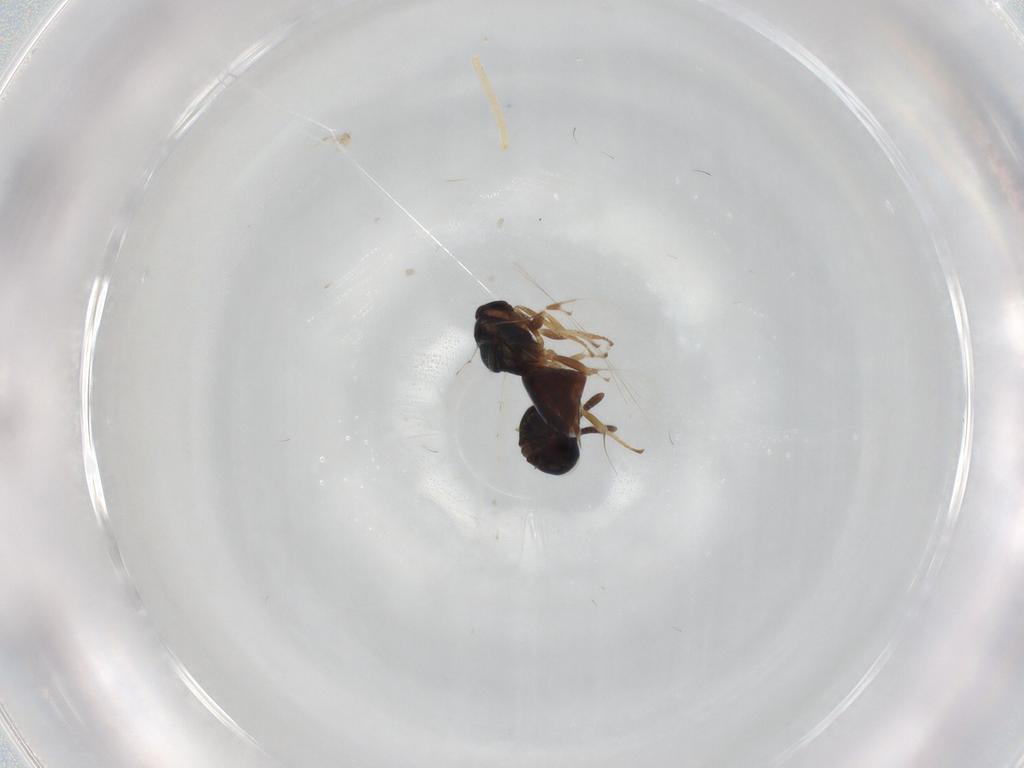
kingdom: Animalia
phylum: Arthropoda
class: Insecta
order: Hymenoptera
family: Pteromalidae
